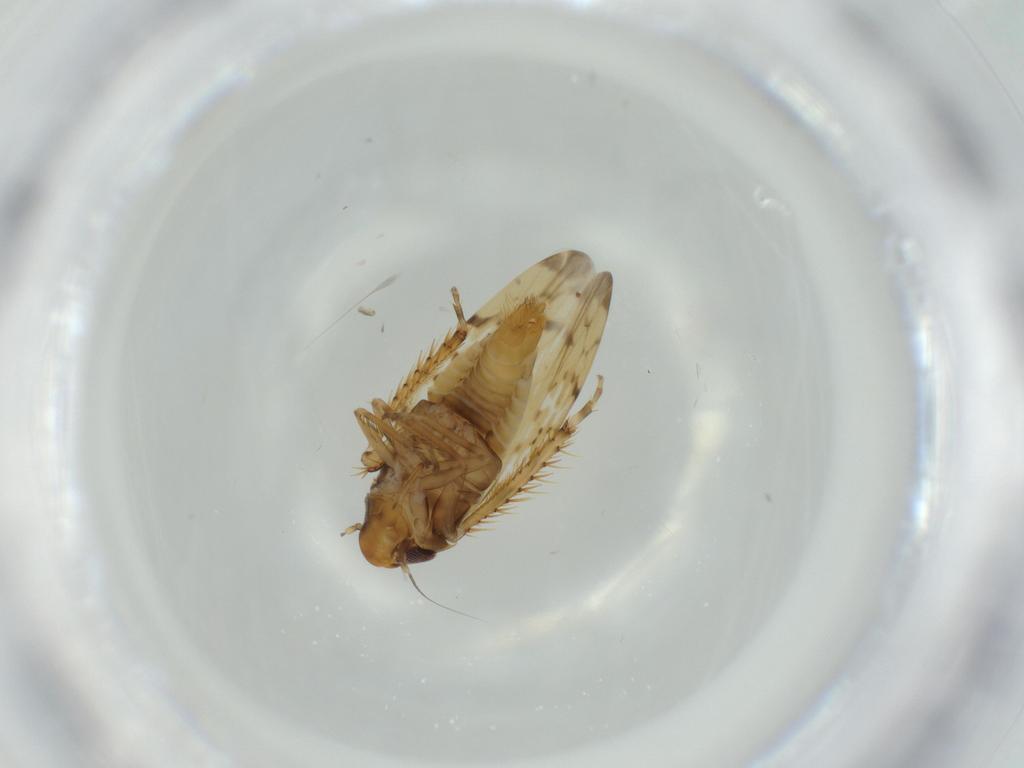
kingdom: Animalia
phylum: Arthropoda
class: Insecta
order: Hemiptera
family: Cicadellidae
